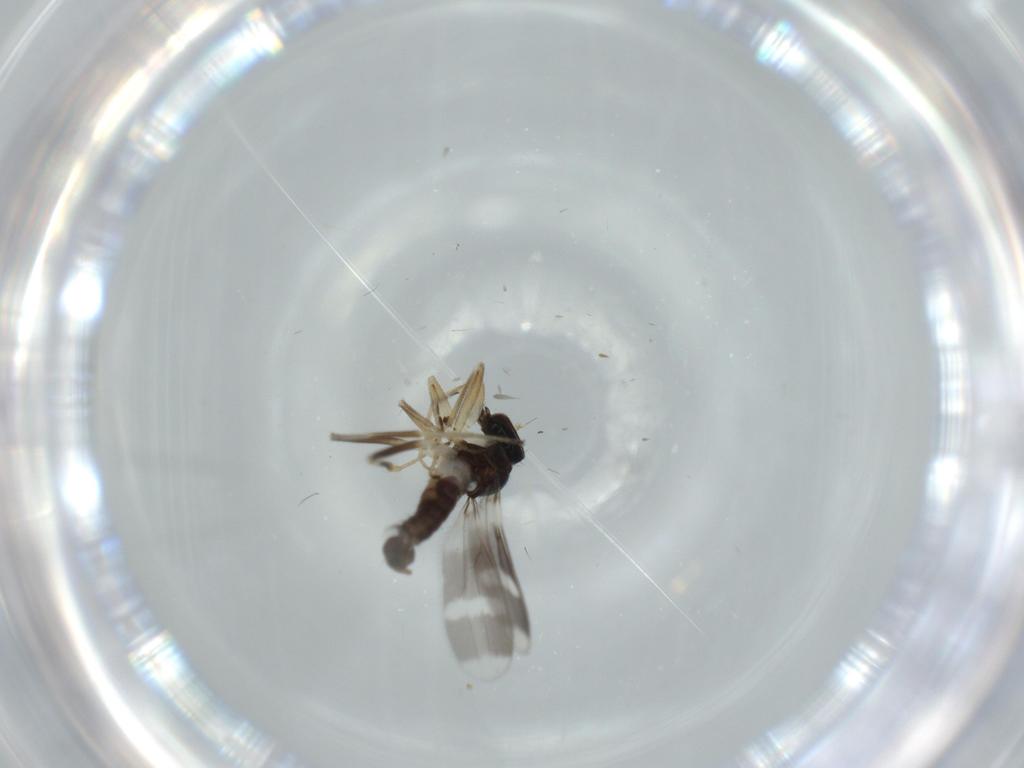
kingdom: Animalia
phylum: Arthropoda
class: Insecta
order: Diptera
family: Hybotidae
